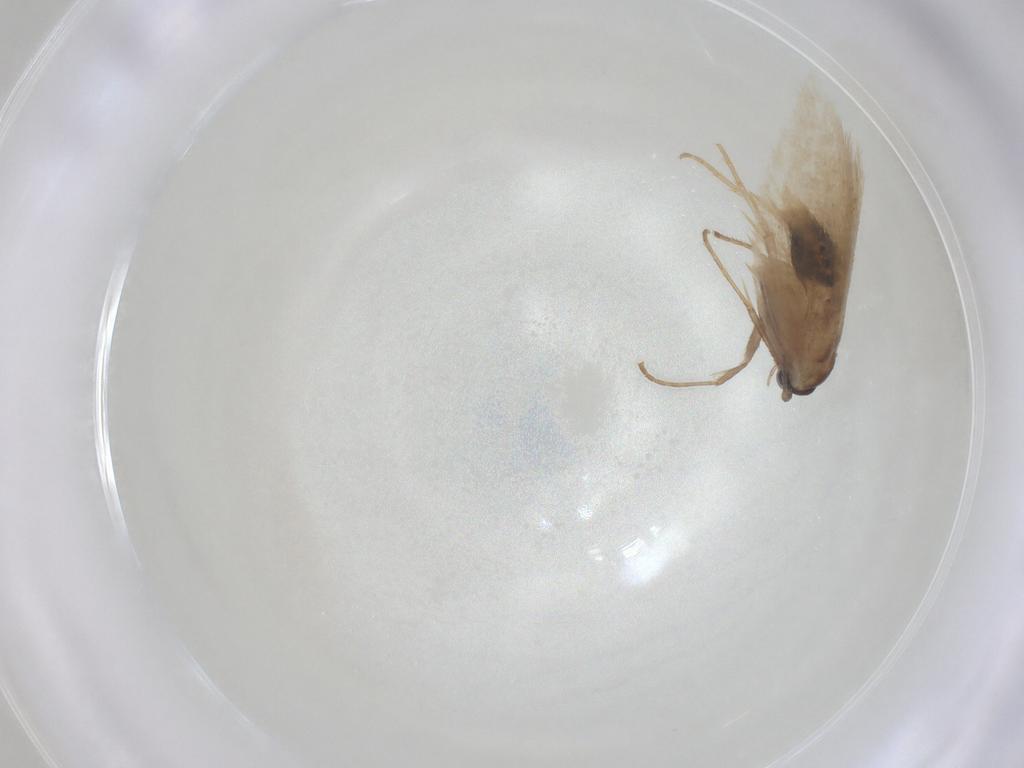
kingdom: Animalia
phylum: Arthropoda
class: Insecta
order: Lepidoptera
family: Nepticulidae
